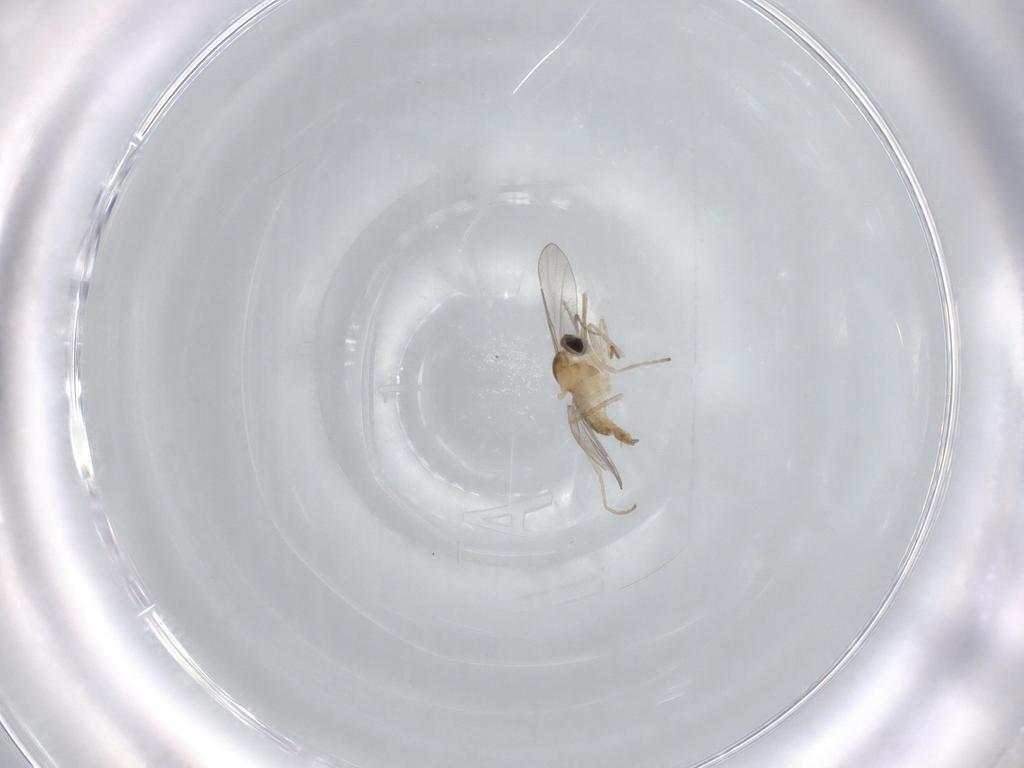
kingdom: Animalia
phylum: Arthropoda
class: Insecta
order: Diptera
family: Cecidomyiidae
